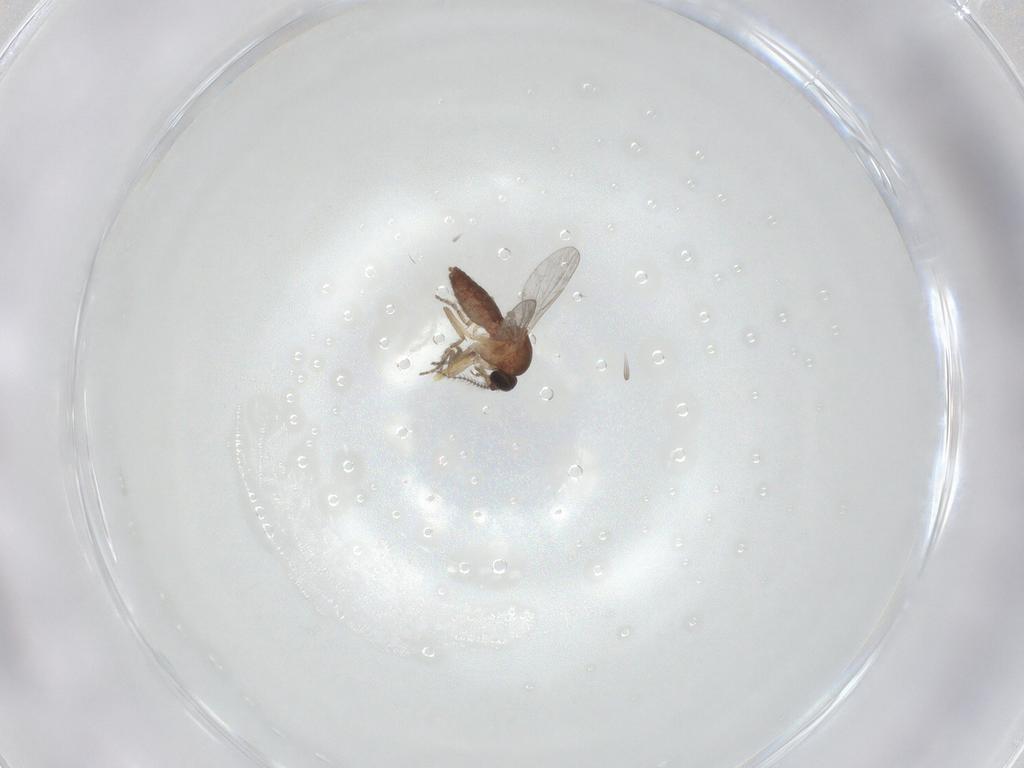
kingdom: Animalia
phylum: Arthropoda
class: Insecta
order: Diptera
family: Ceratopogonidae
